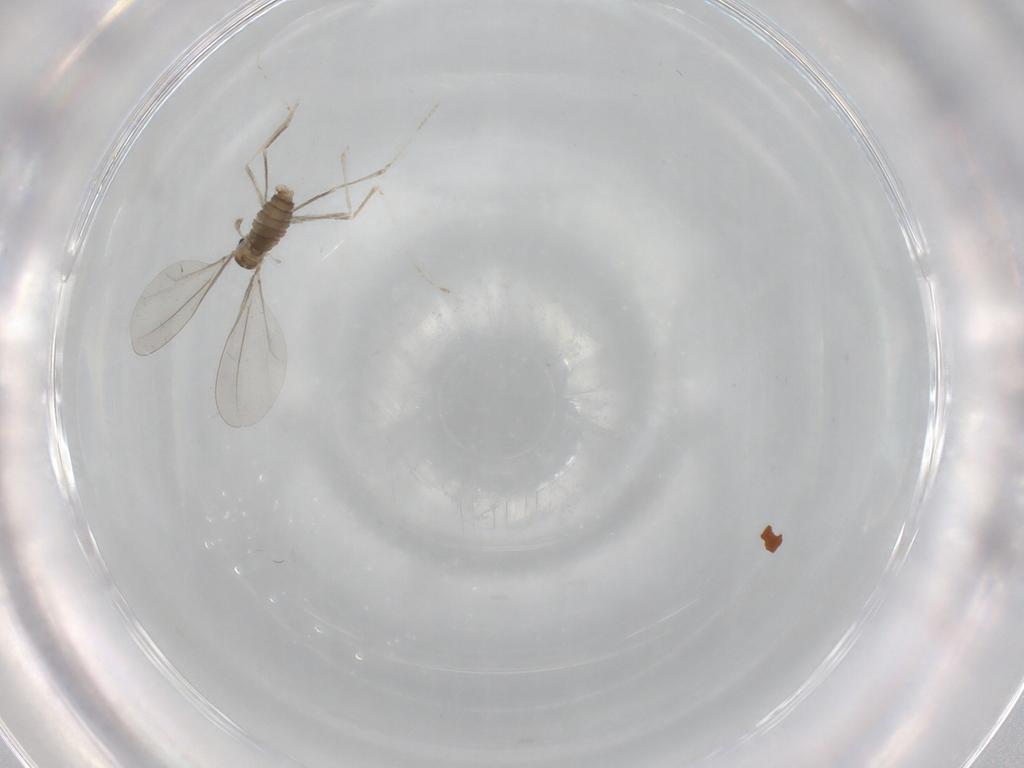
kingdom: Animalia
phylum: Arthropoda
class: Insecta
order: Diptera
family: Cecidomyiidae
